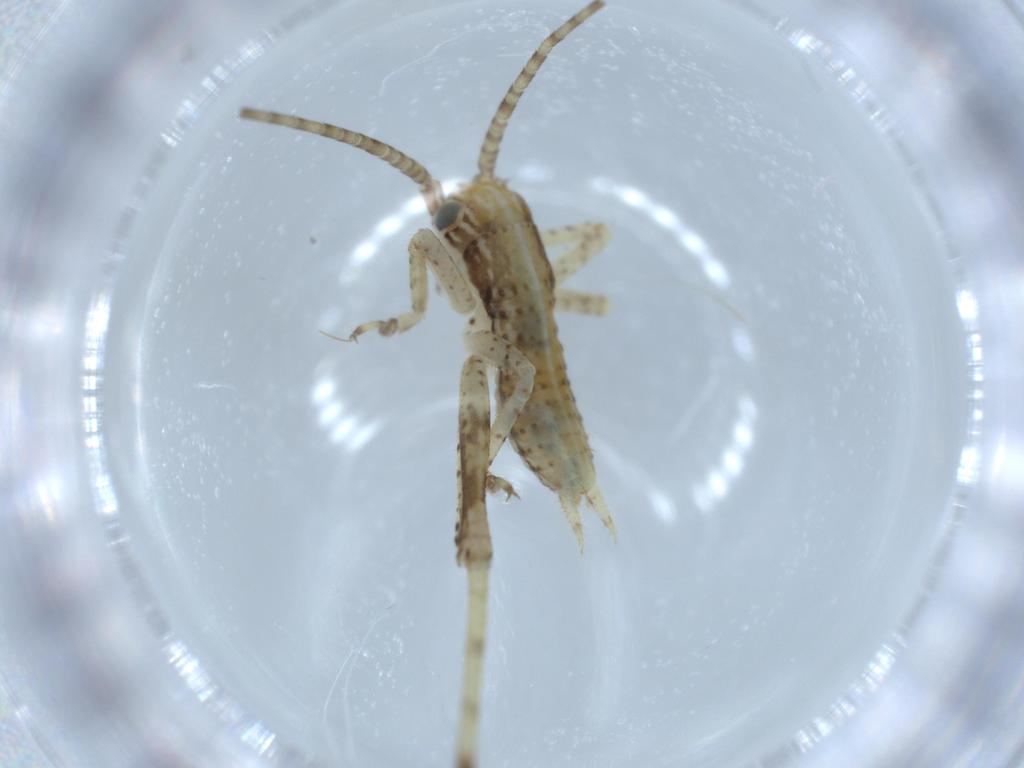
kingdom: Animalia
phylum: Arthropoda
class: Insecta
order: Orthoptera
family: Gryllidae
